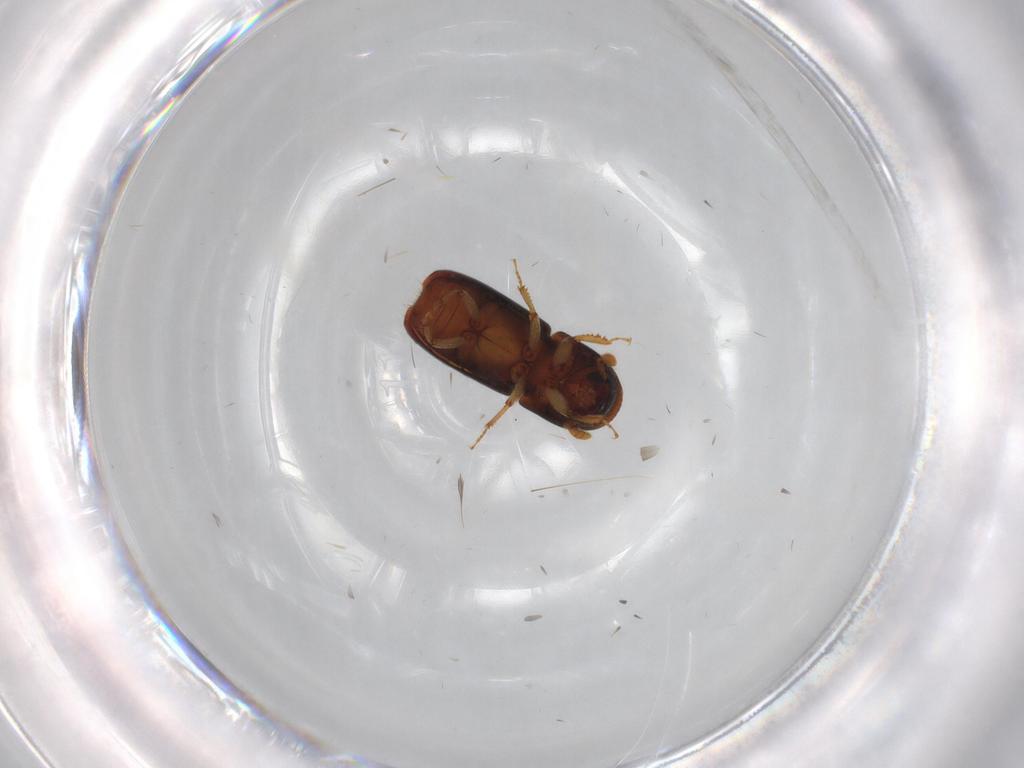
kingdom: Animalia
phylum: Arthropoda
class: Insecta
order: Coleoptera
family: Curculionidae
